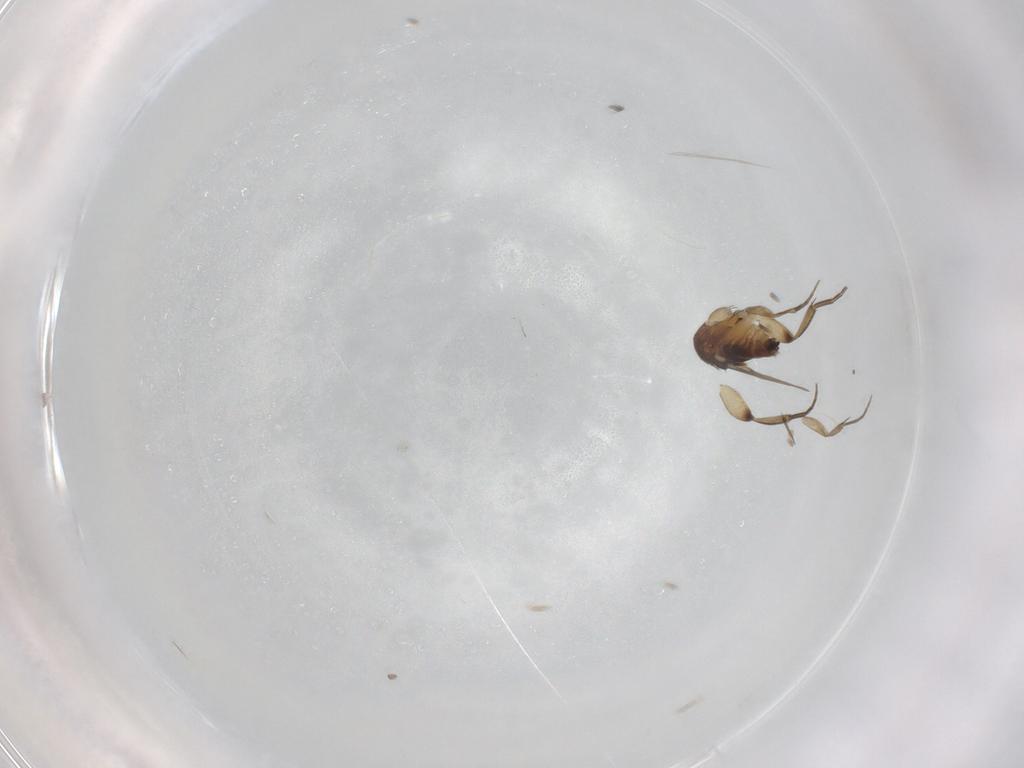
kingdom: Animalia
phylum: Arthropoda
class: Insecta
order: Diptera
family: Phoridae
